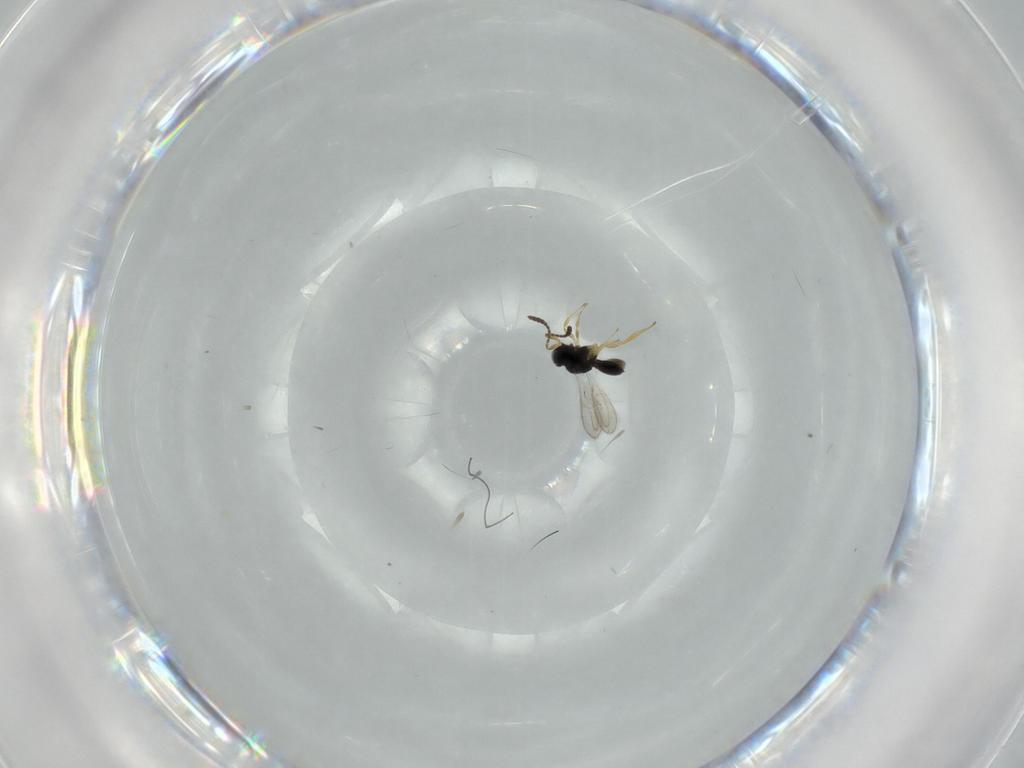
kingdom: Animalia
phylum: Arthropoda
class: Insecta
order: Hymenoptera
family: Scelionidae
